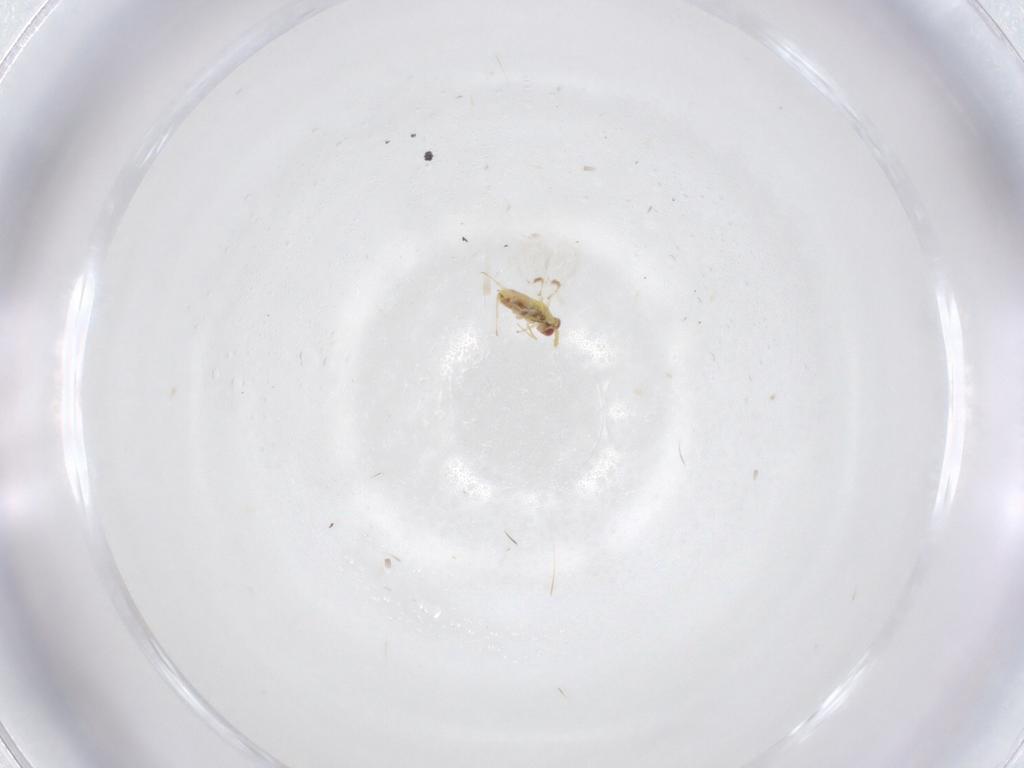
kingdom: Animalia
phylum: Arthropoda
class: Insecta
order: Hymenoptera
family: Trichogrammatidae
